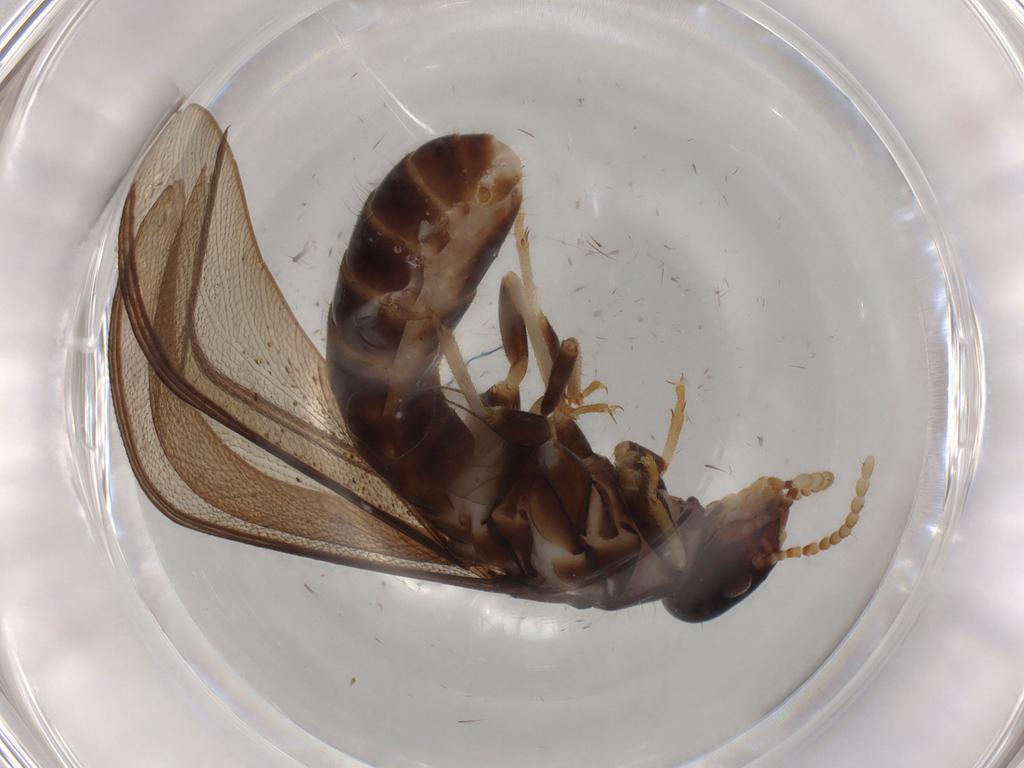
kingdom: Animalia
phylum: Arthropoda
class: Insecta
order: Blattodea
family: Kalotermitidae
